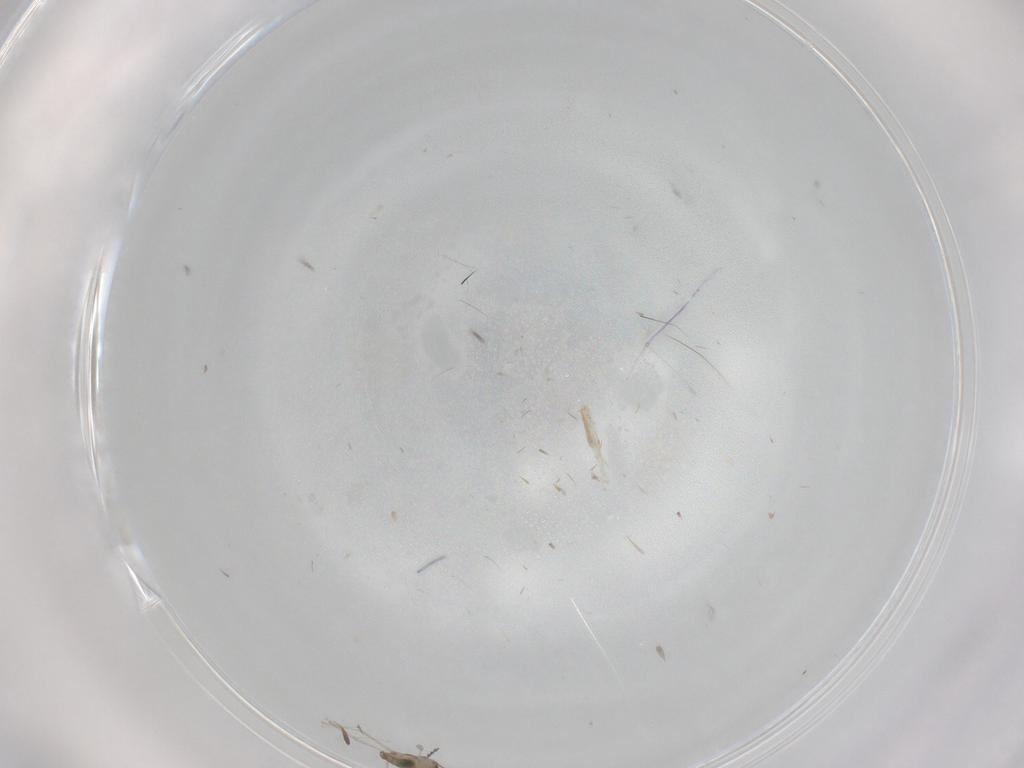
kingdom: Animalia
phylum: Arthropoda
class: Insecta
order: Diptera
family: Cecidomyiidae
